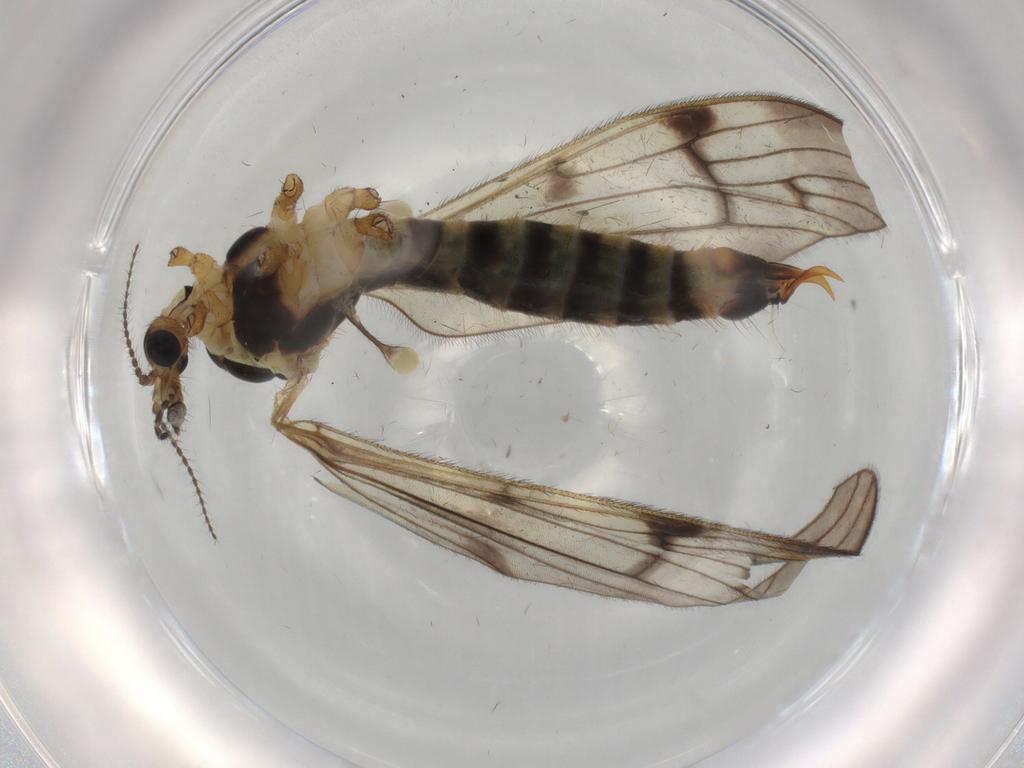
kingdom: Animalia
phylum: Arthropoda
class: Insecta
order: Diptera
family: Limoniidae
